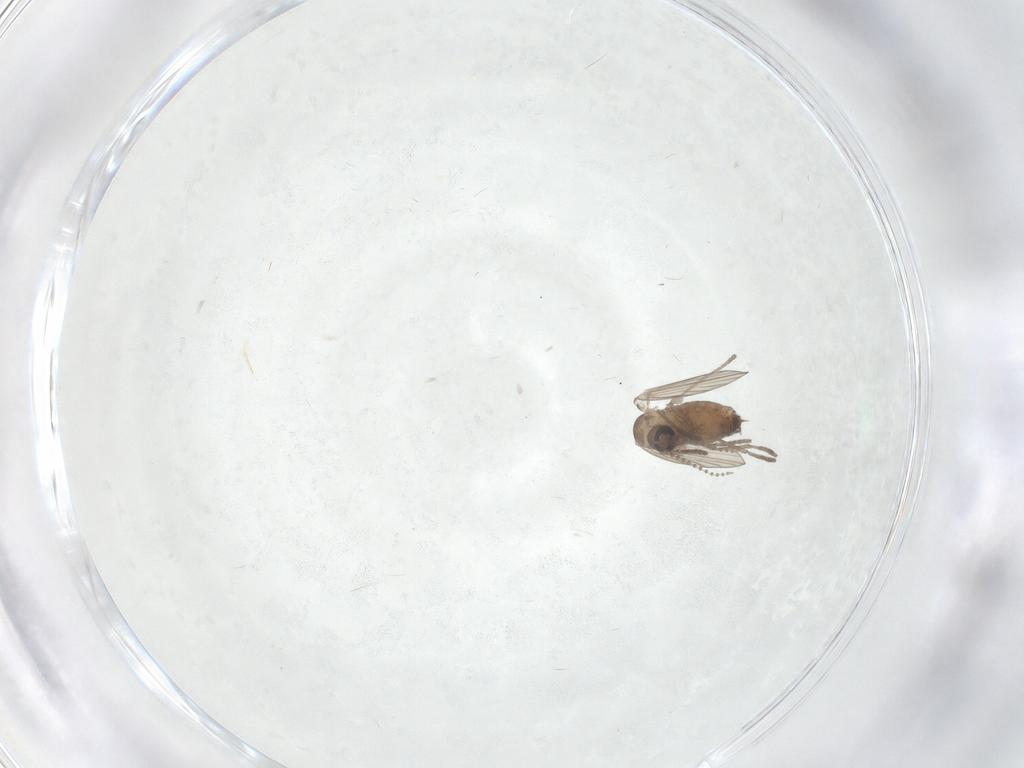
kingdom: Animalia
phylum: Arthropoda
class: Insecta
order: Diptera
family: Psychodidae
